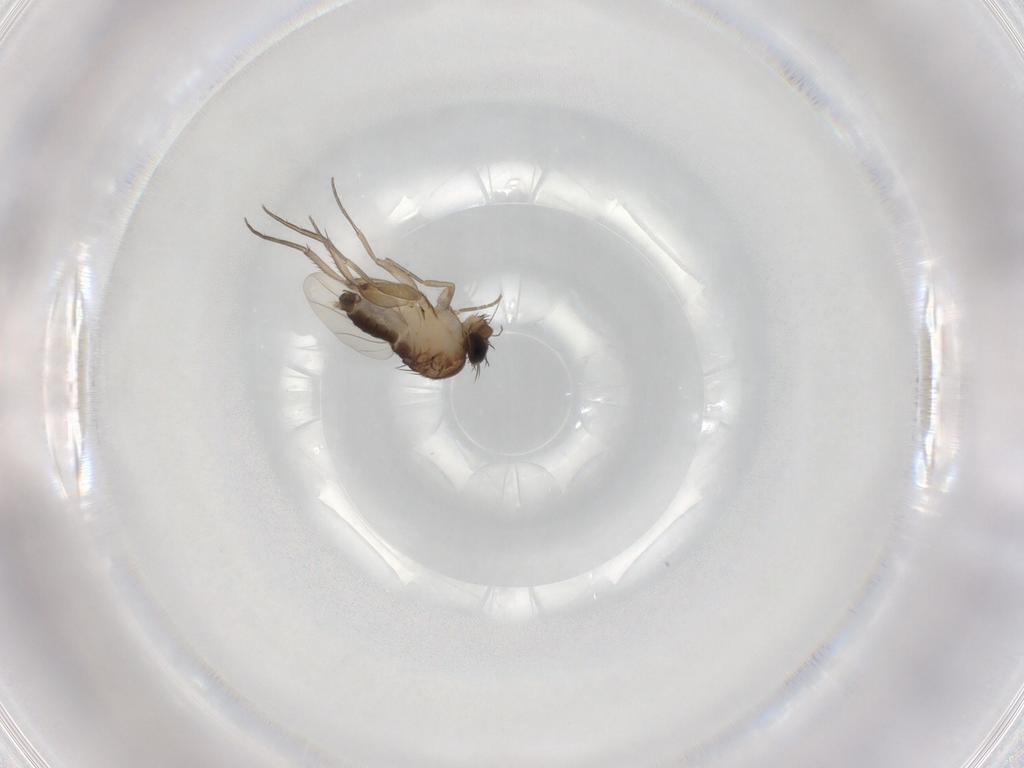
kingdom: Animalia
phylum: Arthropoda
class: Insecta
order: Diptera
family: Phoridae
